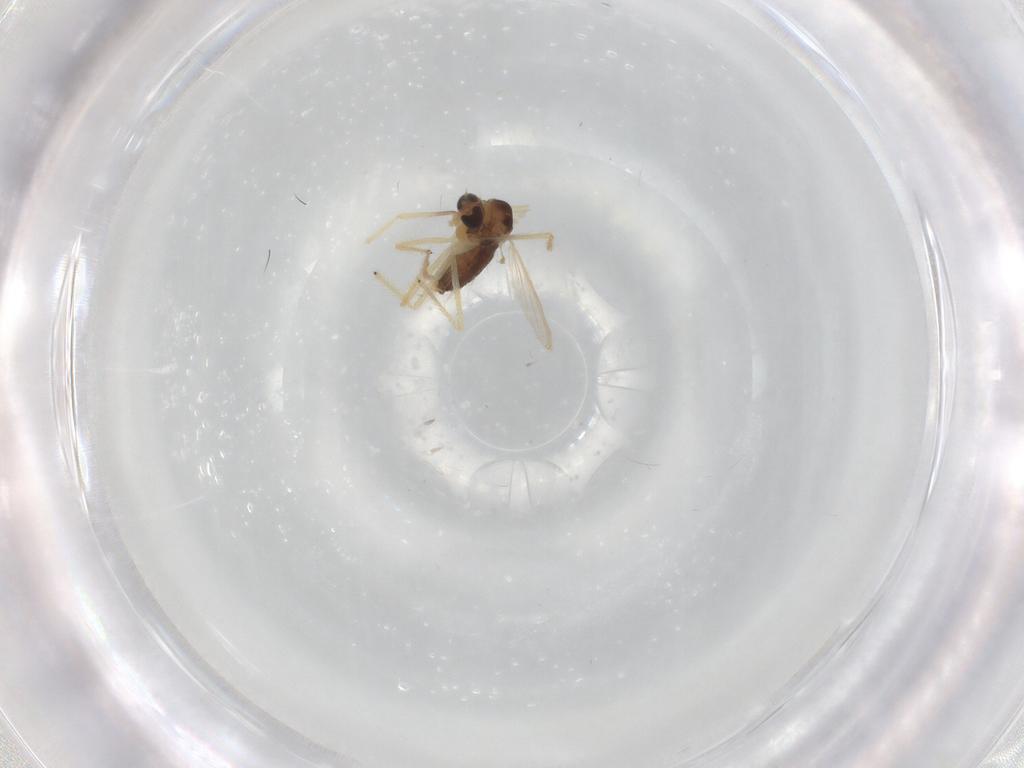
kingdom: Animalia
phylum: Arthropoda
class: Insecta
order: Diptera
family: Chironomidae
